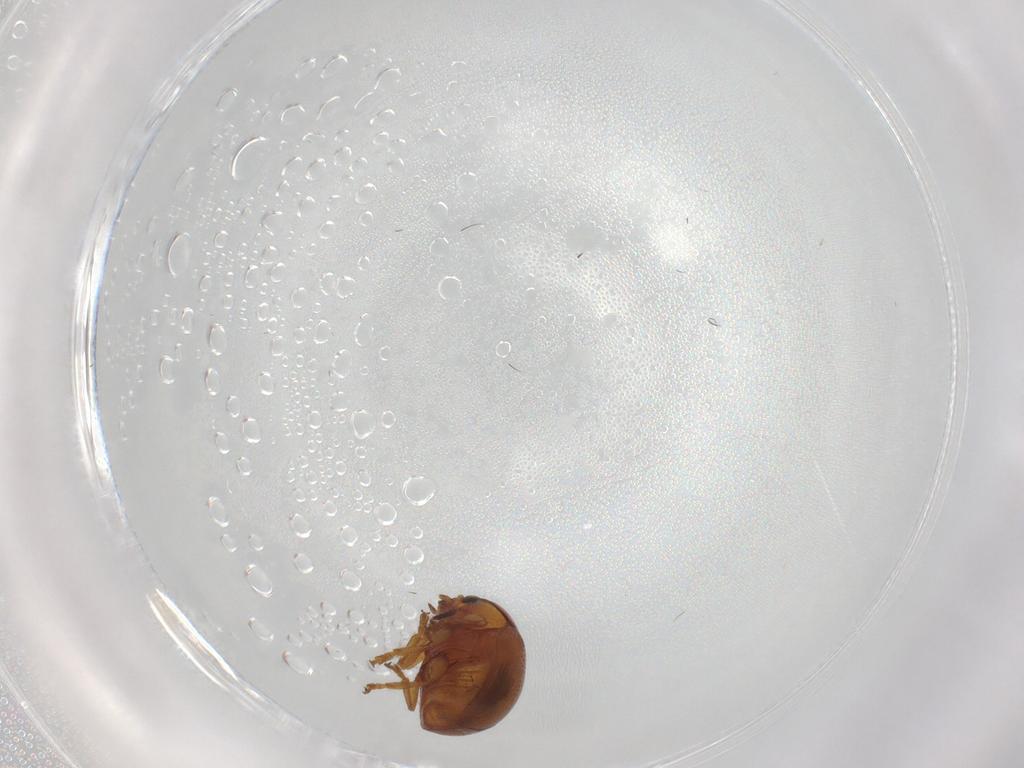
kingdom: Animalia
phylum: Arthropoda
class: Insecta
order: Coleoptera
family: Chrysomelidae
